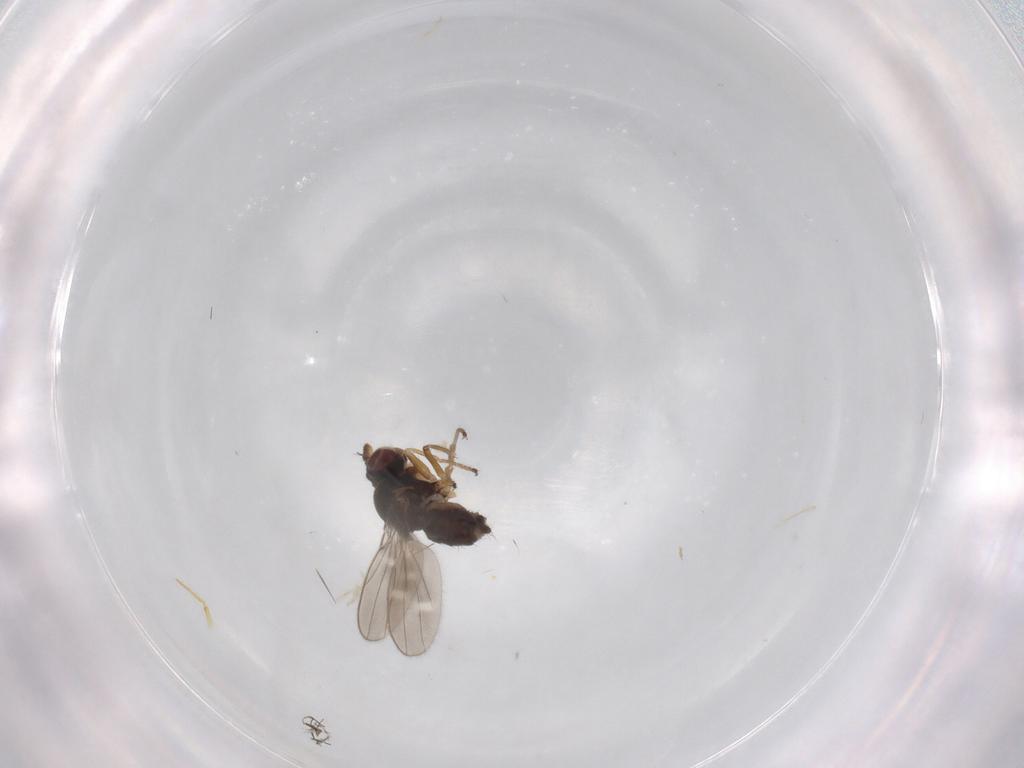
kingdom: Animalia
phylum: Arthropoda
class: Insecta
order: Diptera
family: Ephydridae
